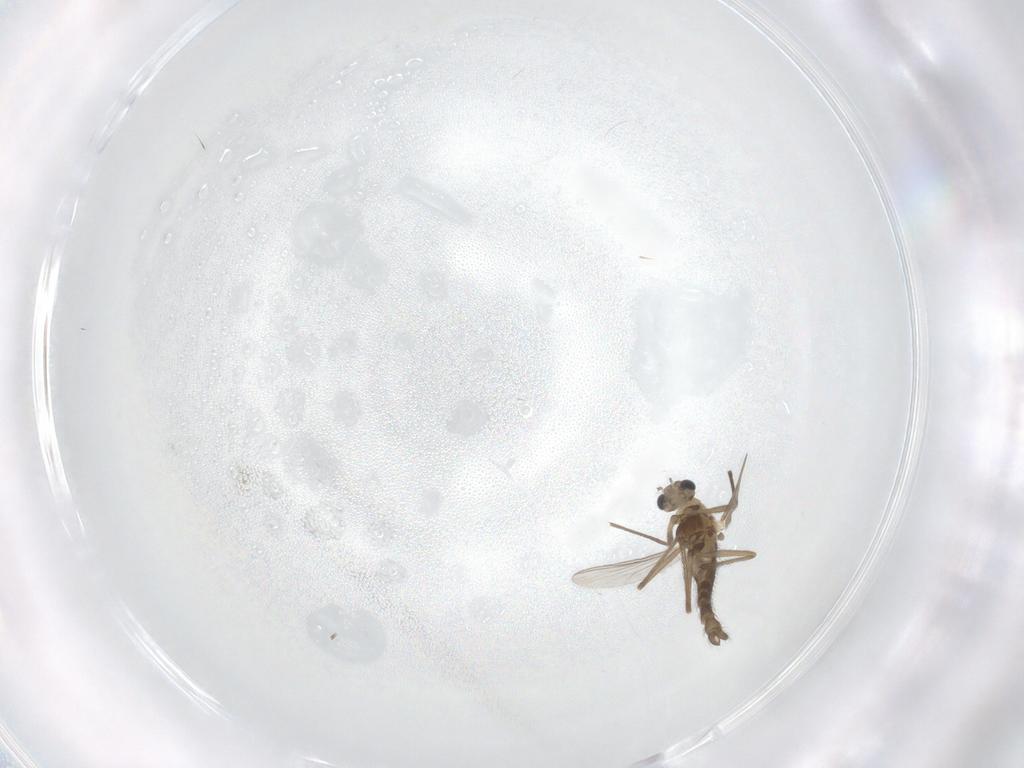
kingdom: Animalia
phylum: Arthropoda
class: Insecta
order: Diptera
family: Chironomidae
